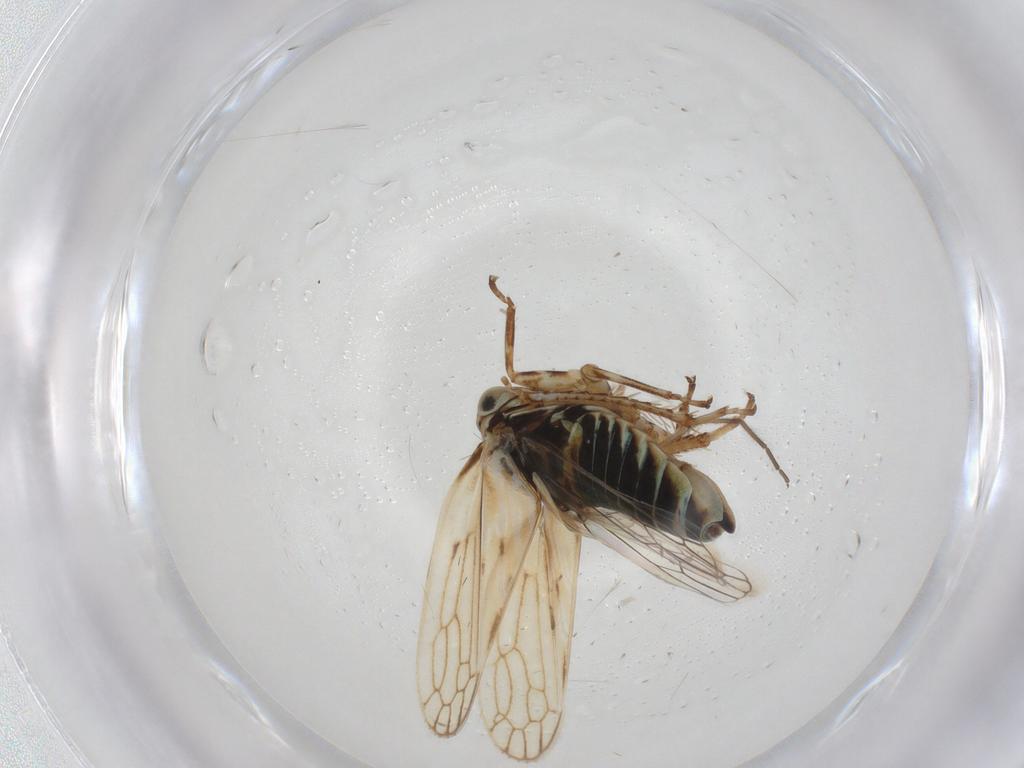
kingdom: Animalia
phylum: Arthropoda
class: Insecta
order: Hemiptera
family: Cicadellidae
